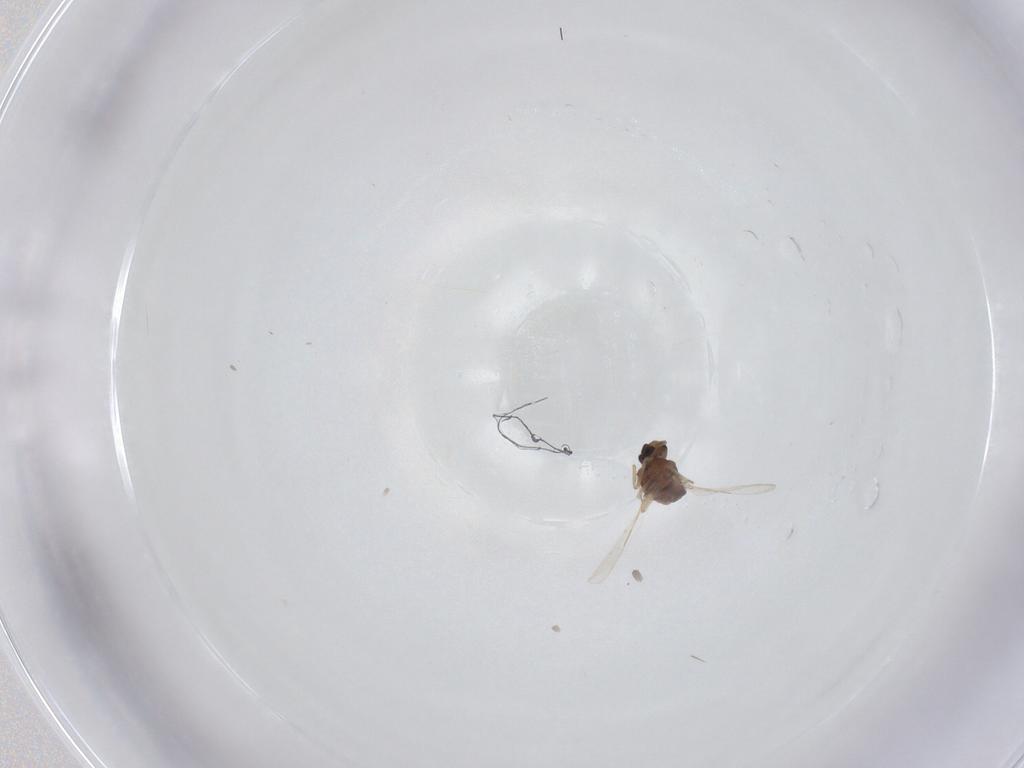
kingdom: Animalia
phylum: Arthropoda
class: Insecta
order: Diptera
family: Ceratopogonidae
